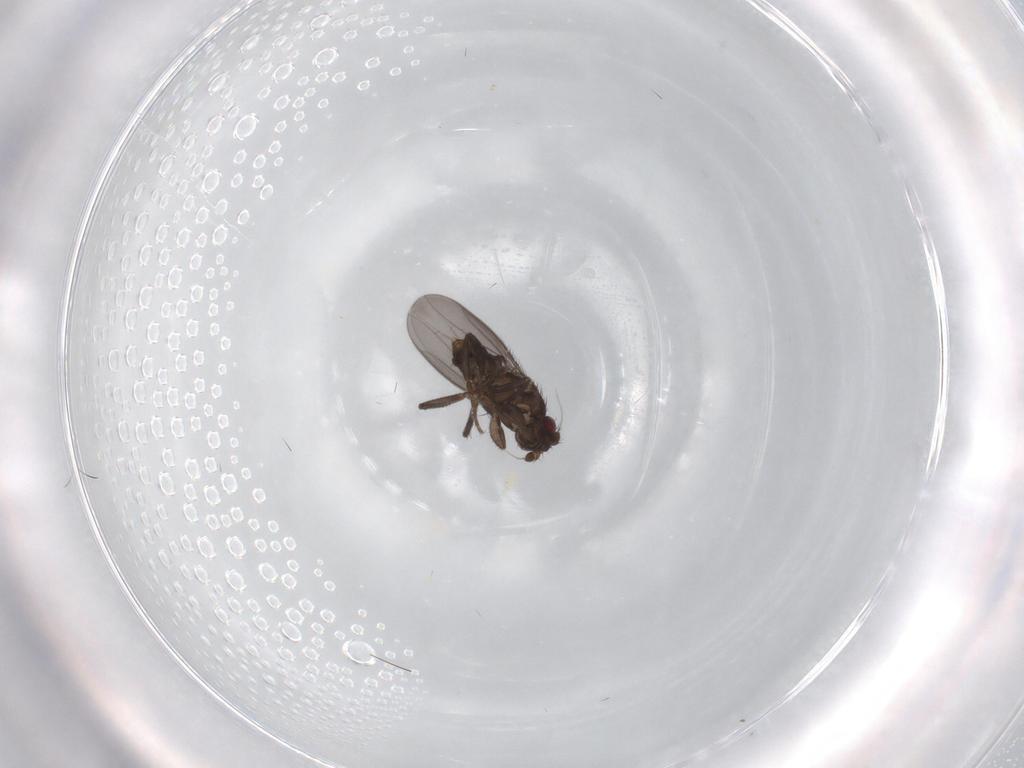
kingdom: Animalia
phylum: Arthropoda
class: Insecta
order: Diptera
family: Sphaeroceridae
